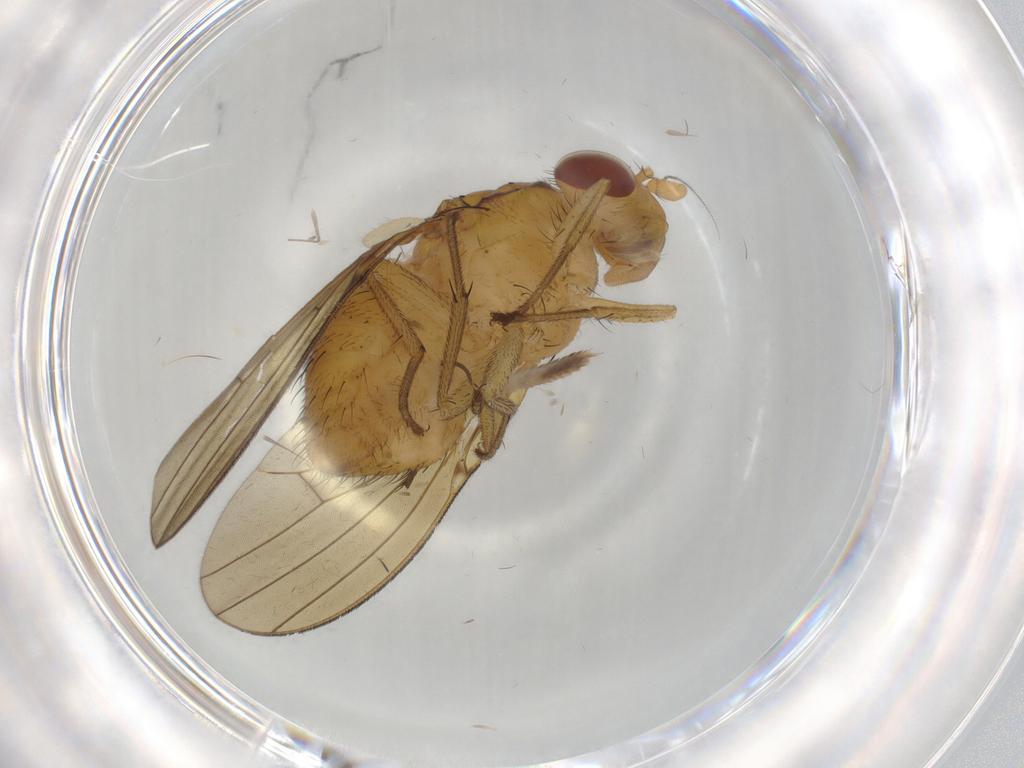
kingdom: Animalia
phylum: Arthropoda
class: Insecta
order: Diptera
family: Lauxaniidae
